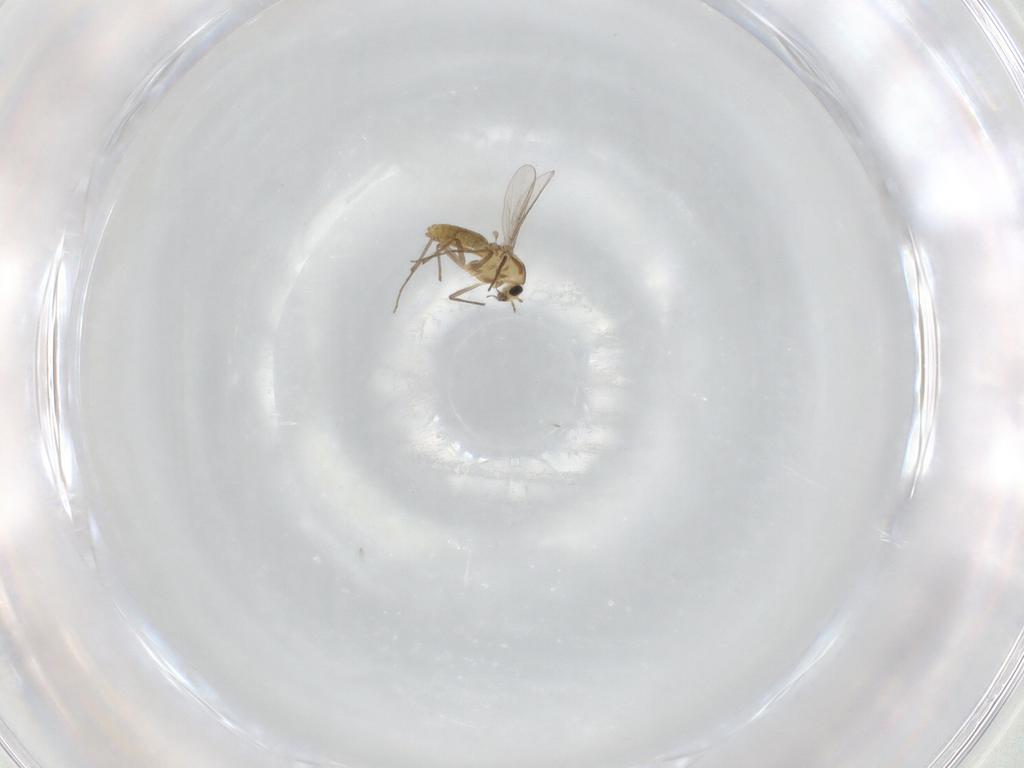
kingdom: Animalia
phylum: Arthropoda
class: Insecta
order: Diptera
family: Chironomidae
